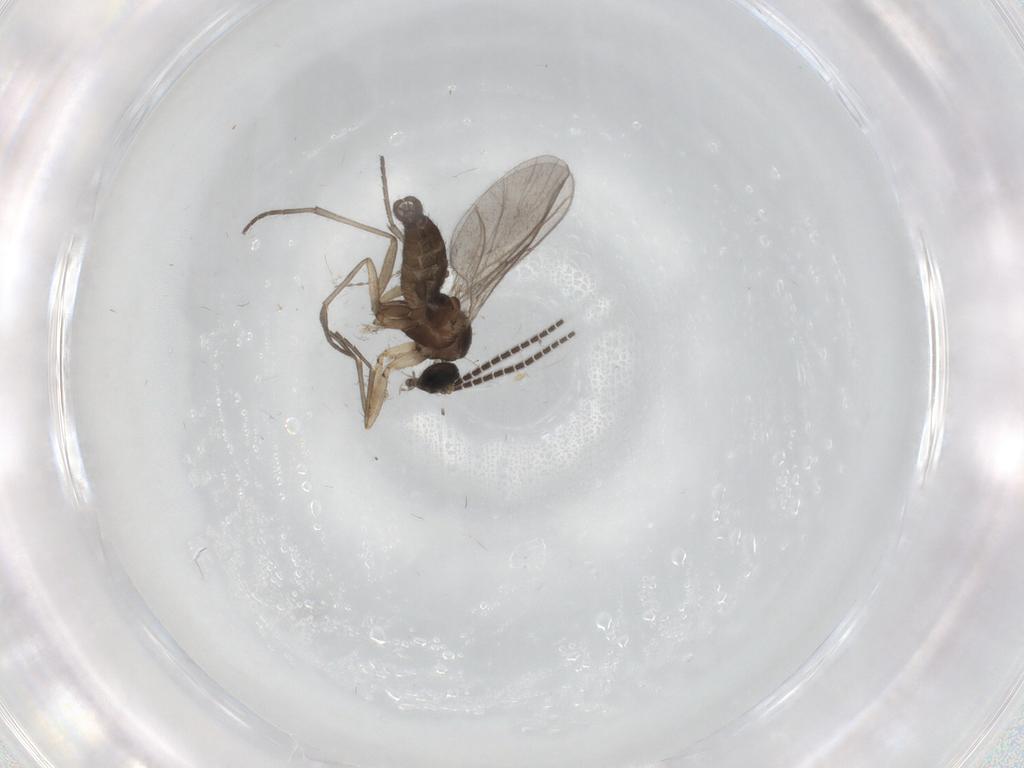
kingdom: Animalia
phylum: Arthropoda
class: Insecta
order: Diptera
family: Sciaridae
